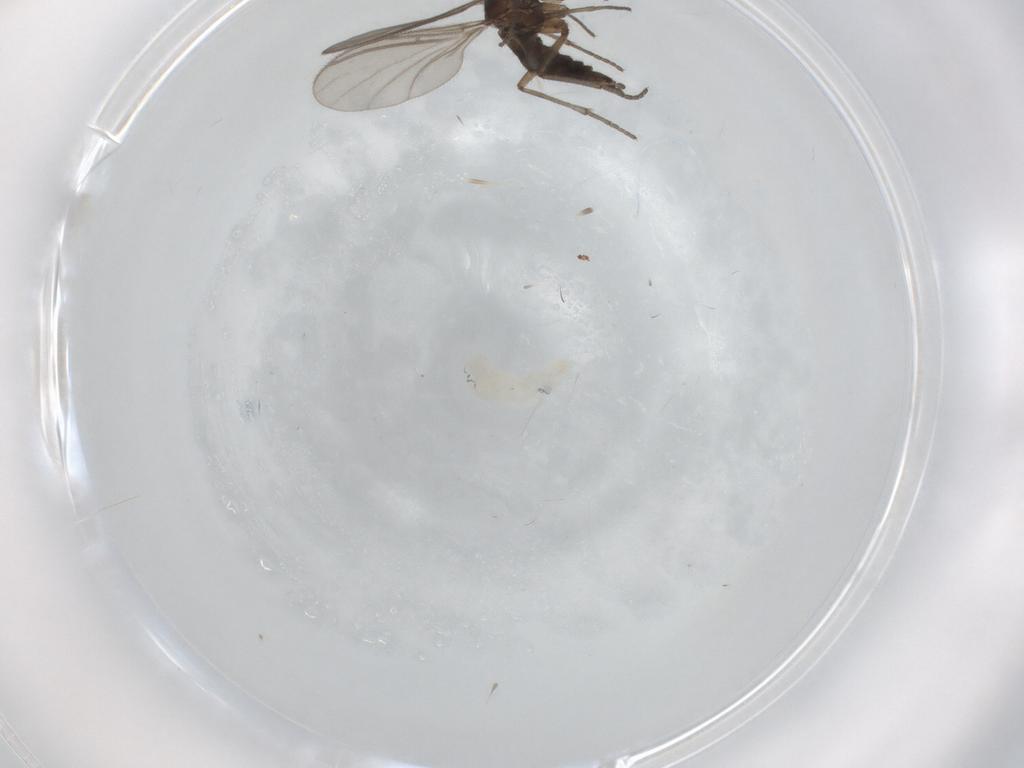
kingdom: Animalia
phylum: Arthropoda
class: Insecta
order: Diptera
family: Sciaridae
